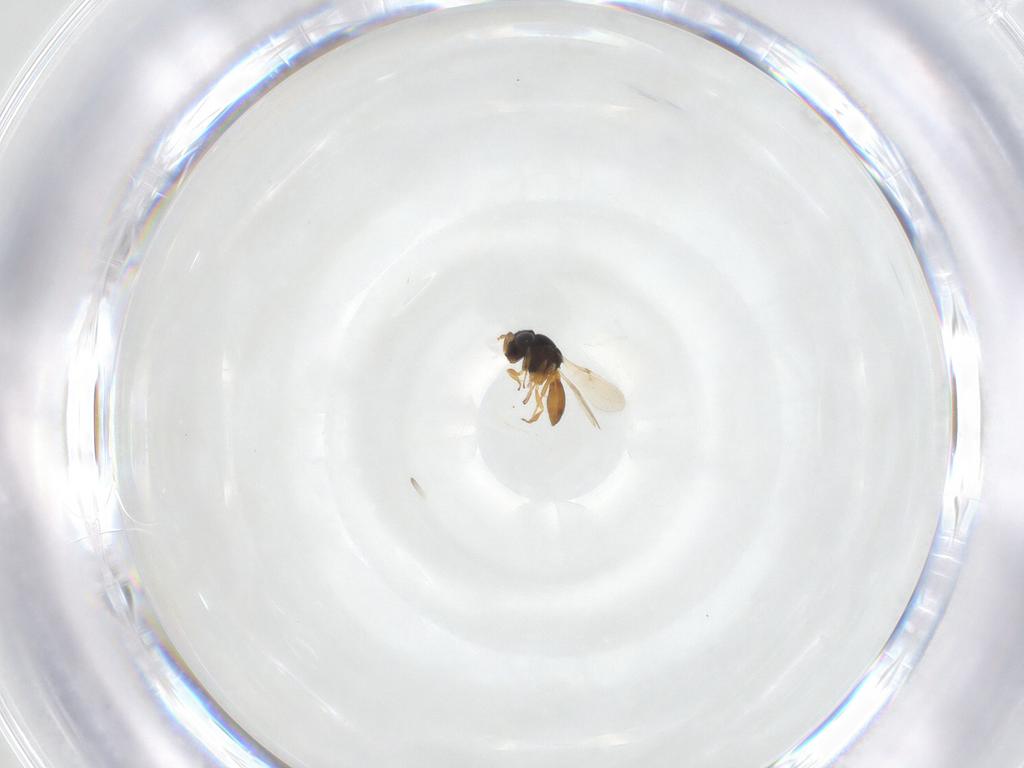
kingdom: Animalia
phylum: Arthropoda
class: Insecta
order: Hymenoptera
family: Scelionidae
